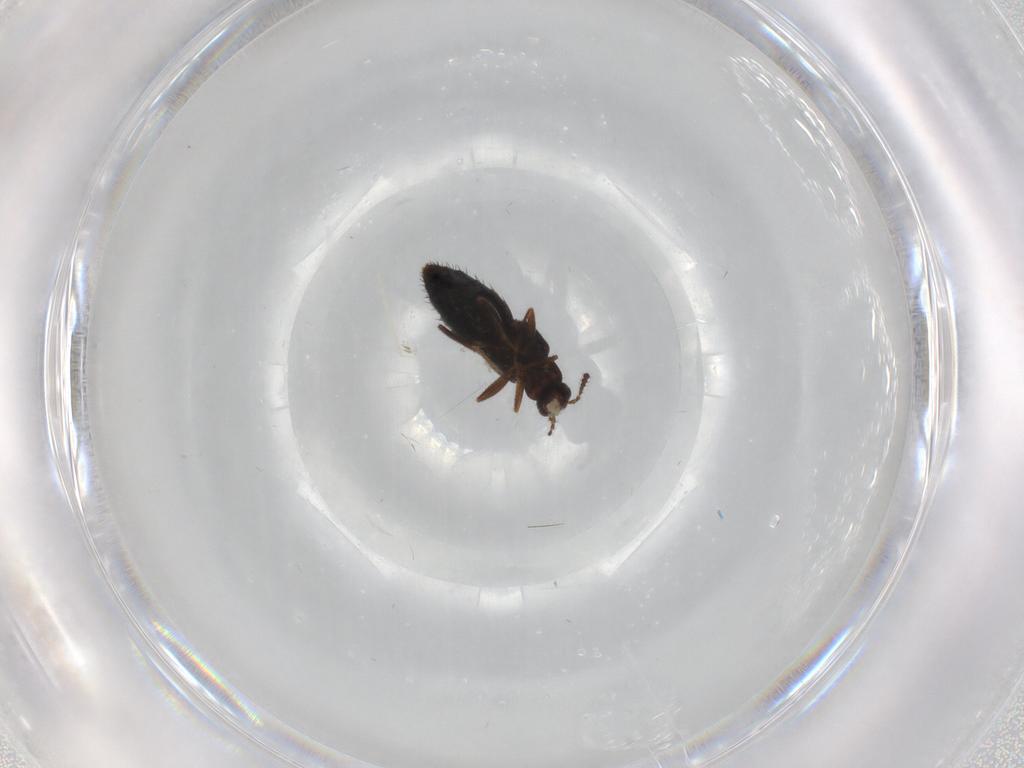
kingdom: Animalia
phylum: Arthropoda
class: Insecta
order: Coleoptera
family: Staphylinidae
